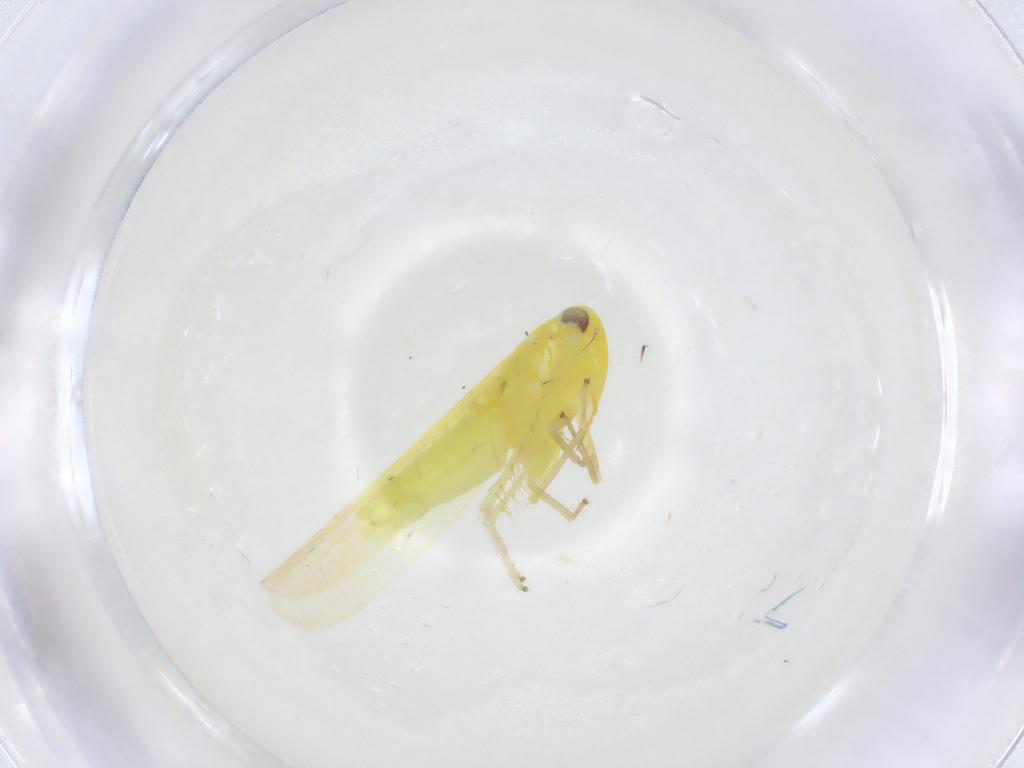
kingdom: Animalia
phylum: Arthropoda
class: Insecta
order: Hemiptera
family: Cicadellidae
